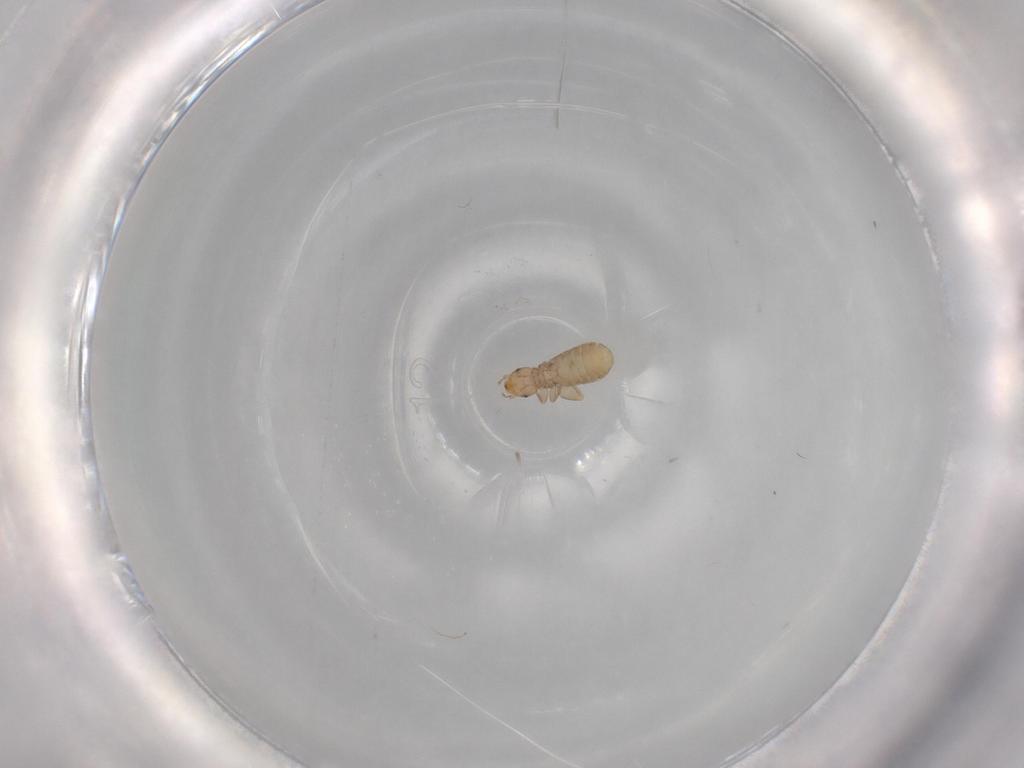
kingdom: Animalia
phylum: Arthropoda
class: Insecta
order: Psocodea
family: Liposcelididae
